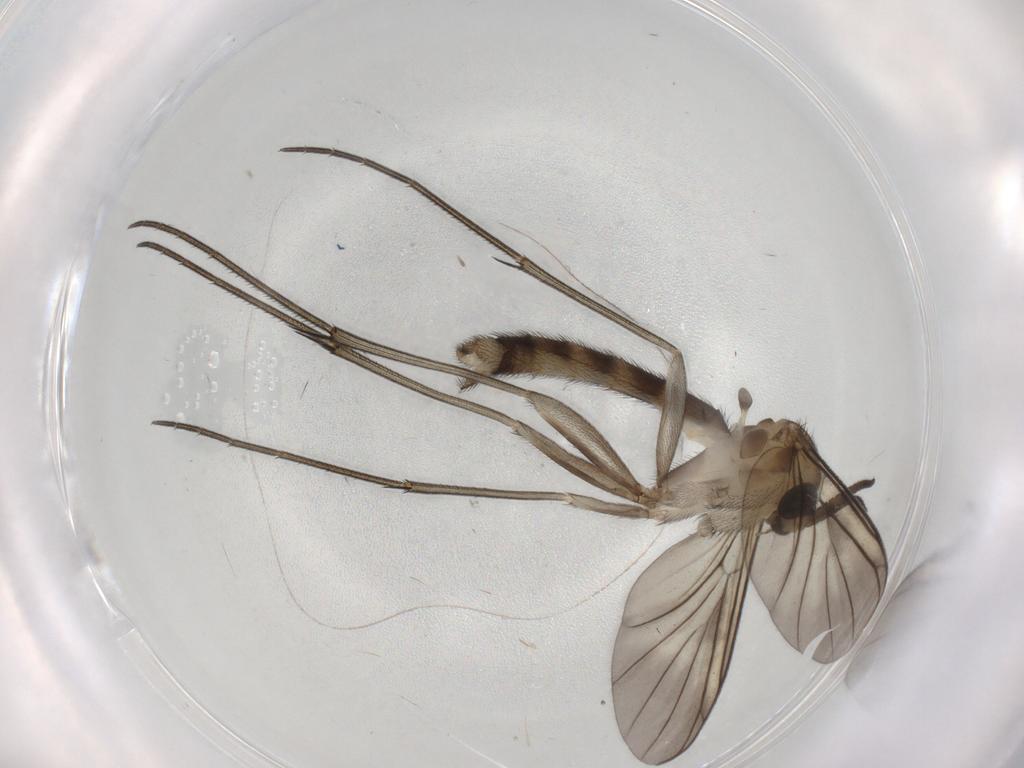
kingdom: Animalia
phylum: Arthropoda
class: Insecta
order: Diptera
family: Mycetophilidae
